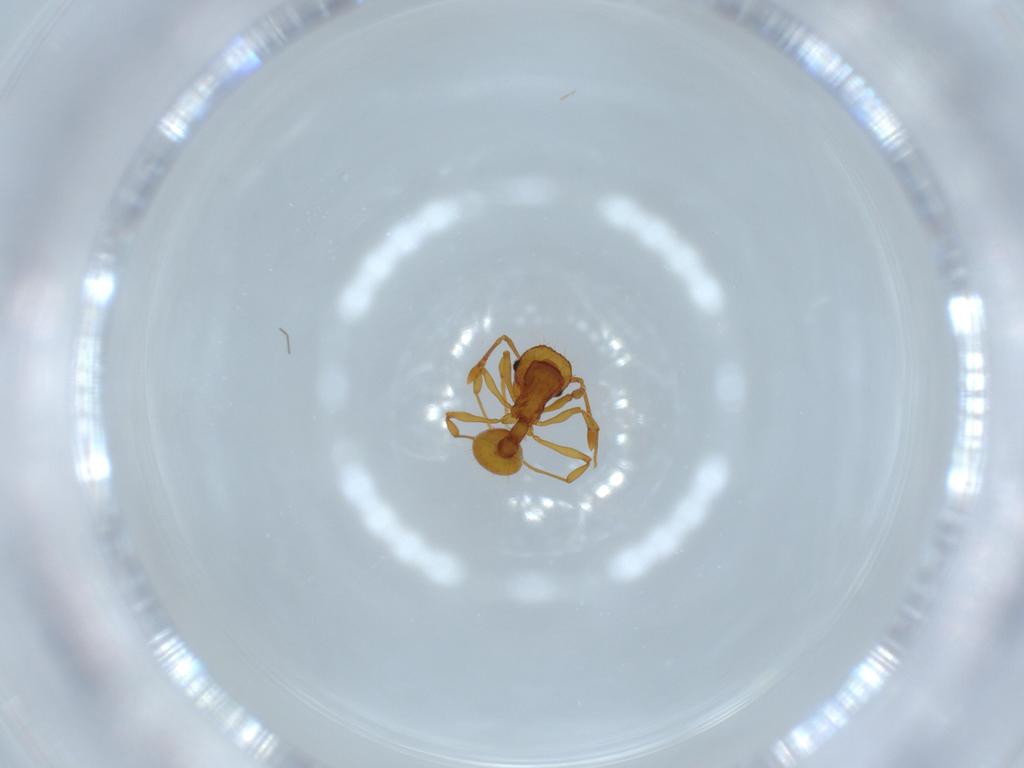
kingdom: Animalia
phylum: Arthropoda
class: Insecta
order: Hymenoptera
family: Formicidae
